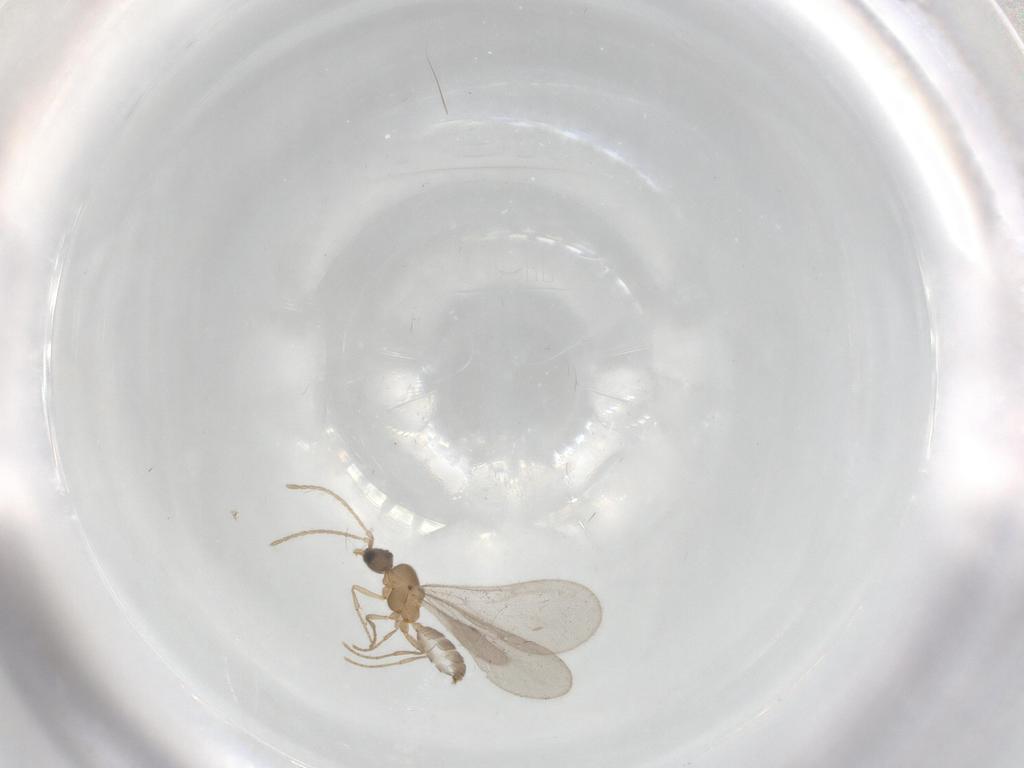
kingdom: Animalia
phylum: Arthropoda
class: Insecta
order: Hymenoptera
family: Formicidae
